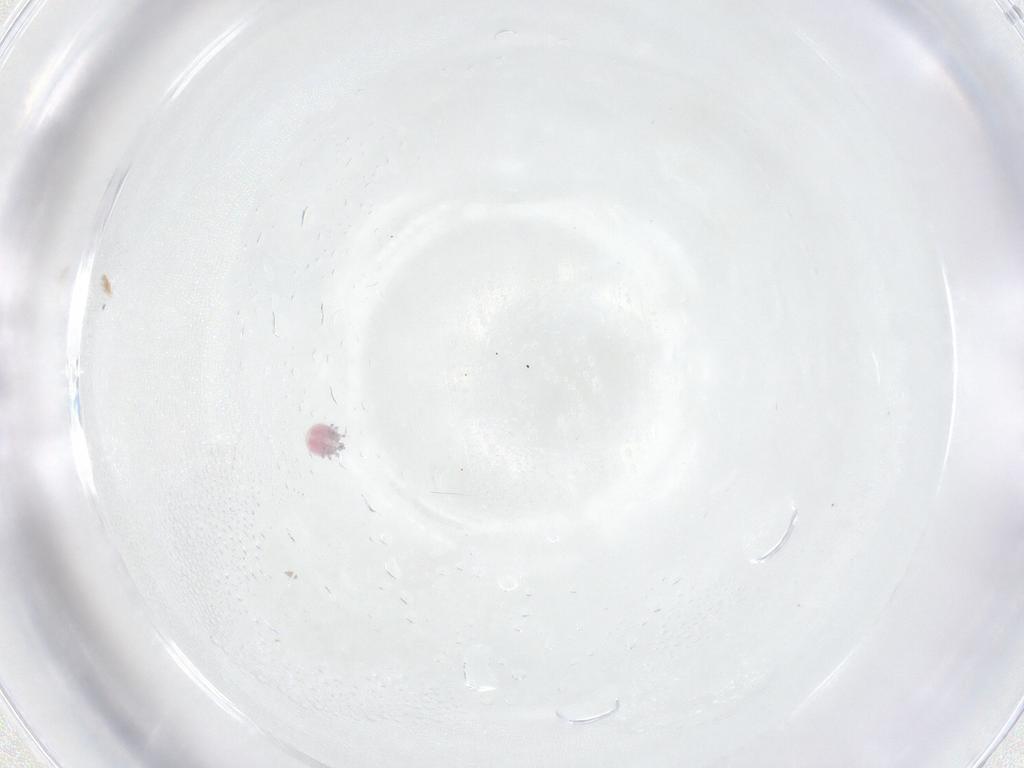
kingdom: Animalia
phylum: Arthropoda
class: Arachnida
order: Trombidiformes
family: Pionidae
